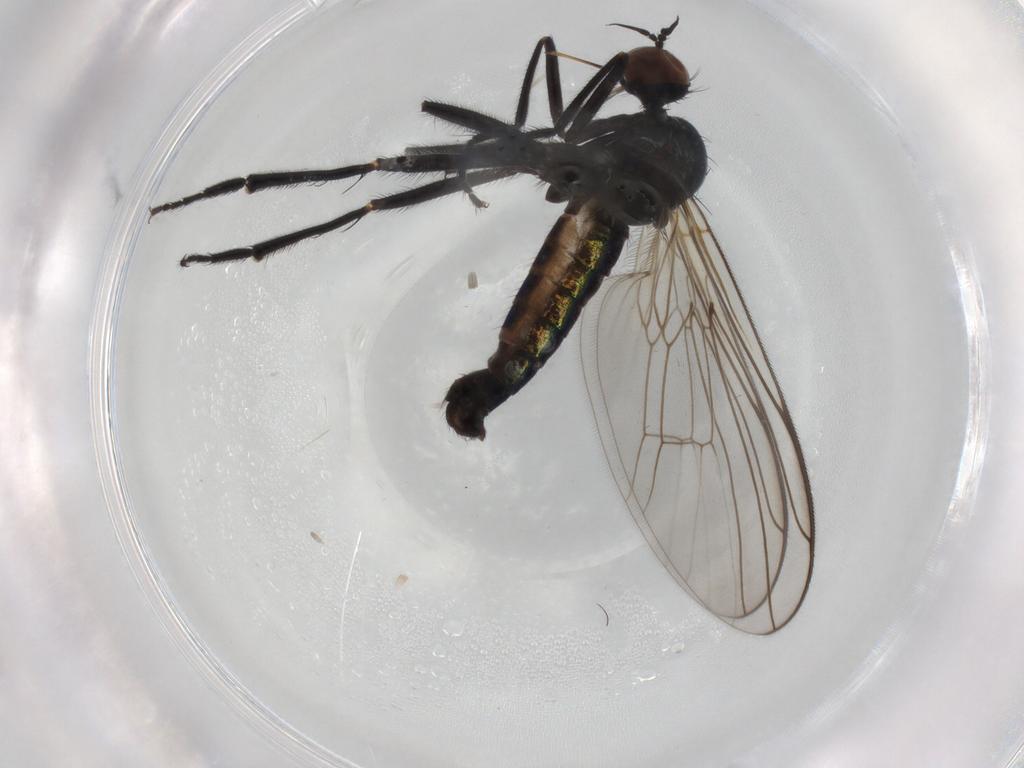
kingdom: Animalia
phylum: Arthropoda
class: Insecta
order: Diptera
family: Empididae
